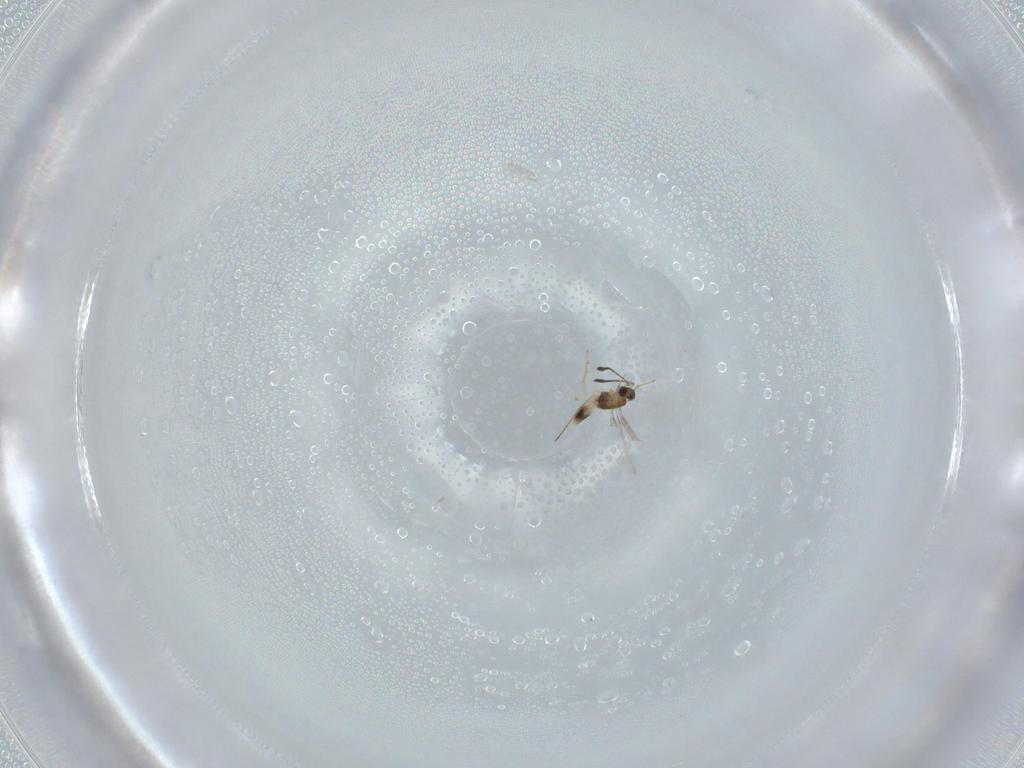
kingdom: Animalia
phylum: Arthropoda
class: Insecta
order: Hymenoptera
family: Mymaridae
